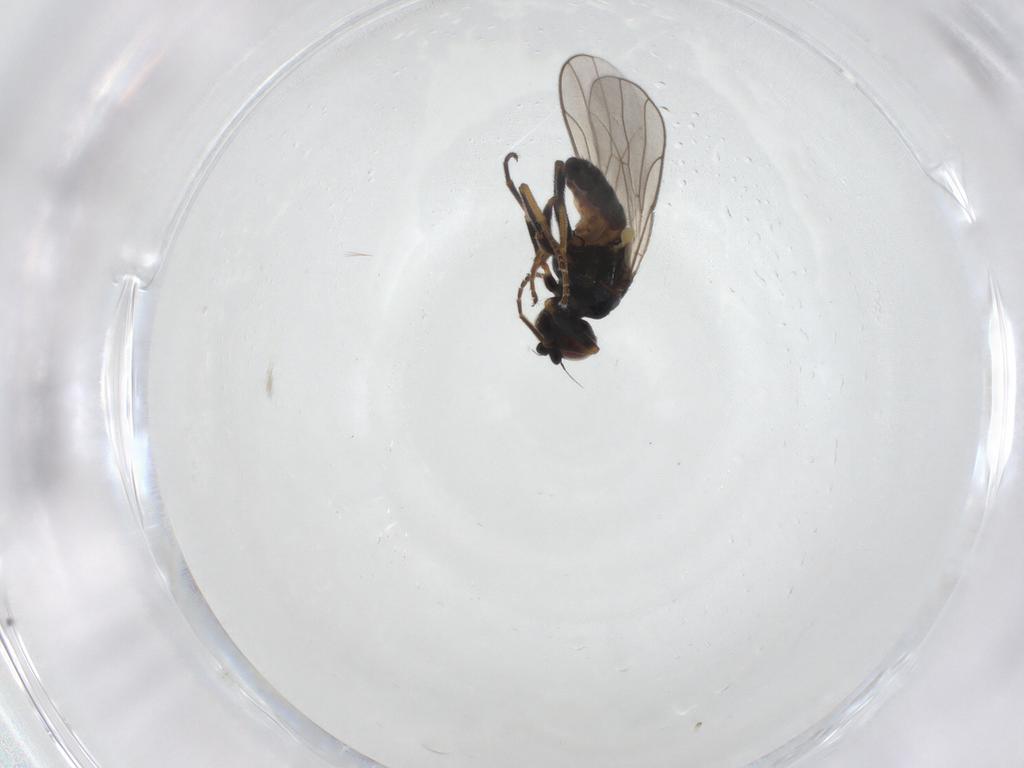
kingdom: Animalia
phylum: Arthropoda
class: Insecta
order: Diptera
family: Chloropidae
